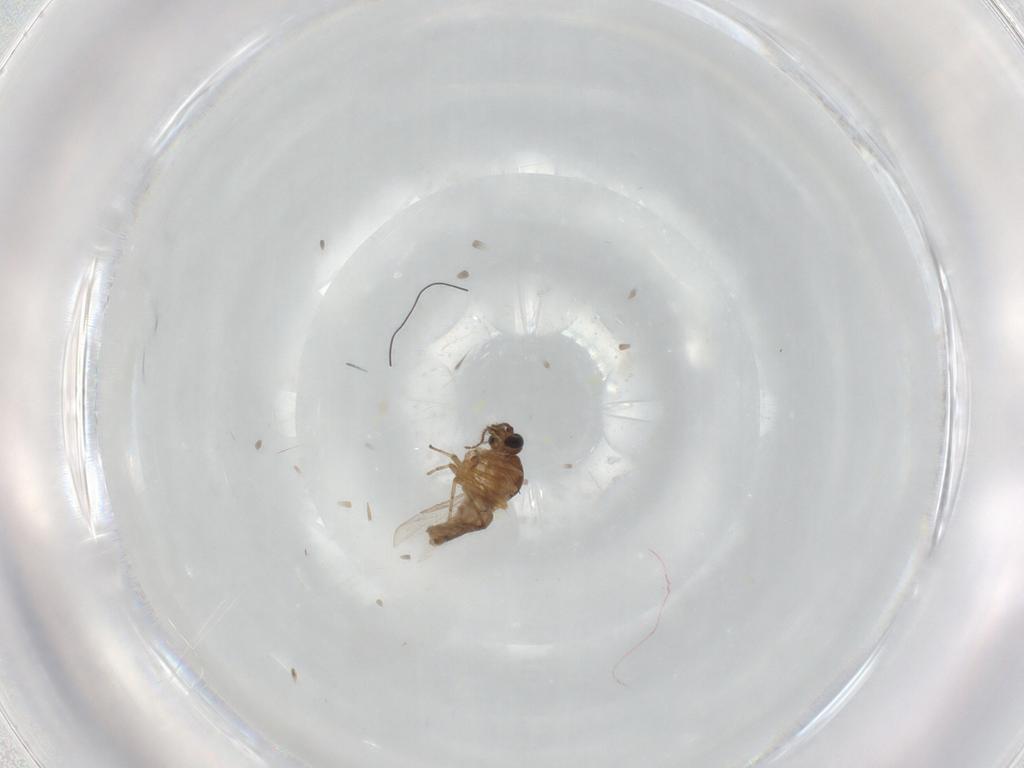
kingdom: Animalia
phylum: Arthropoda
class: Insecta
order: Diptera
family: Ceratopogonidae
